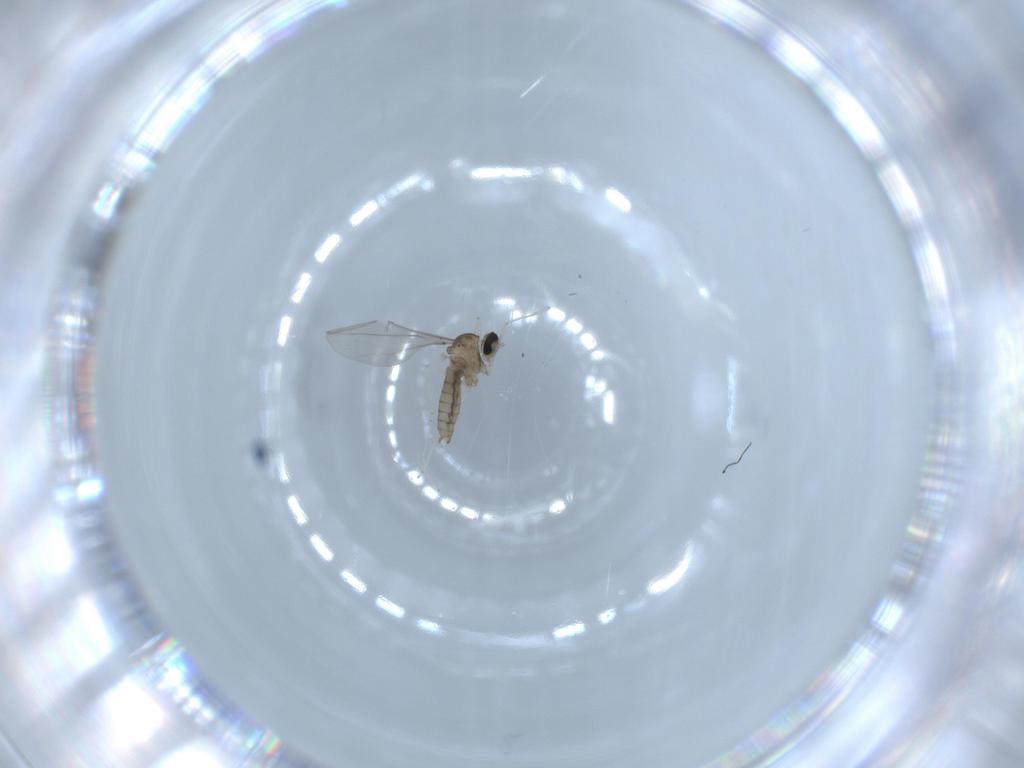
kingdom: Animalia
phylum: Arthropoda
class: Insecta
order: Diptera
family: Cecidomyiidae
